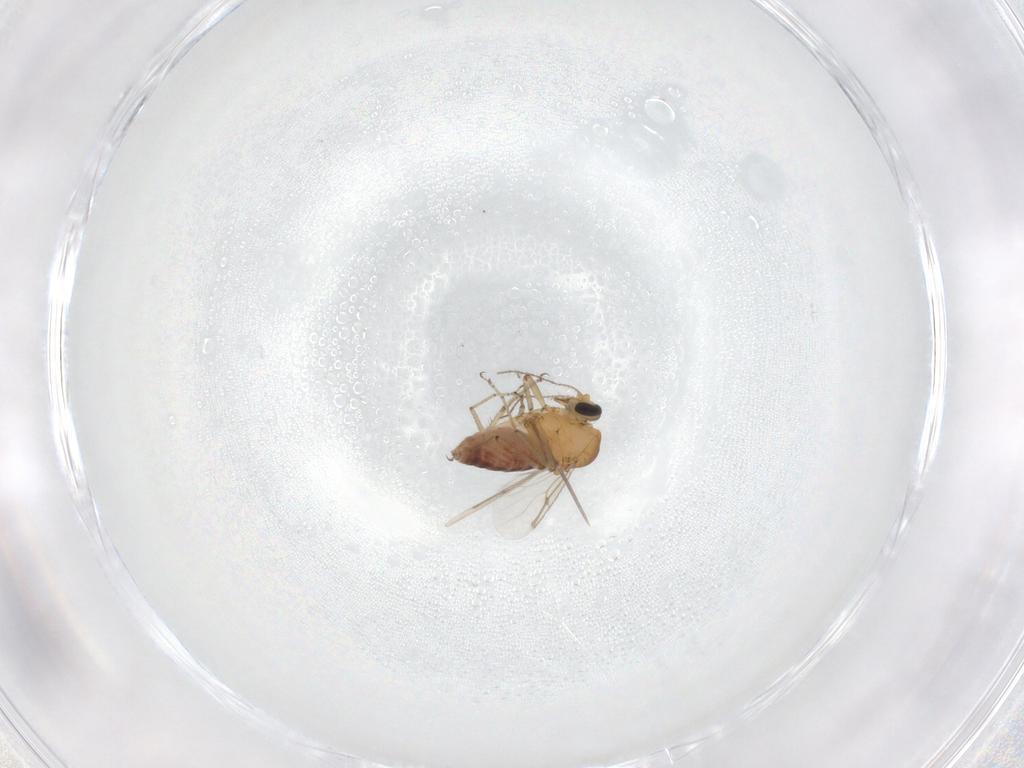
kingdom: Animalia
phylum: Arthropoda
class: Insecta
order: Diptera
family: Ceratopogonidae
